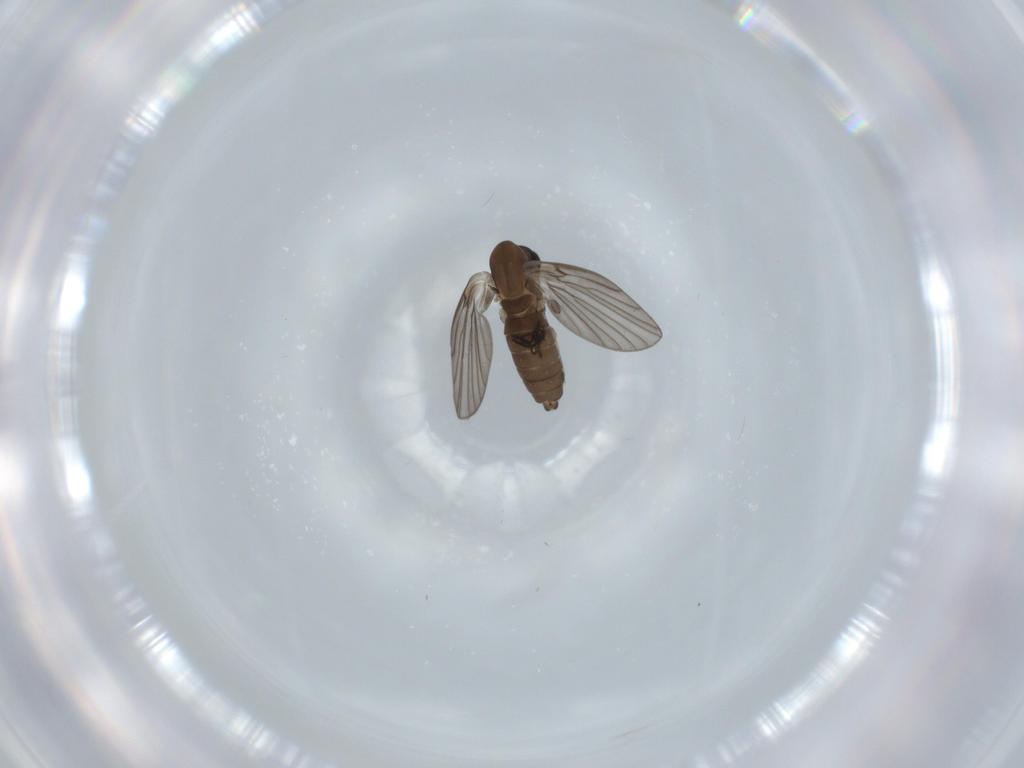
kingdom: Animalia
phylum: Arthropoda
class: Insecta
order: Diptera
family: Psychodidae
